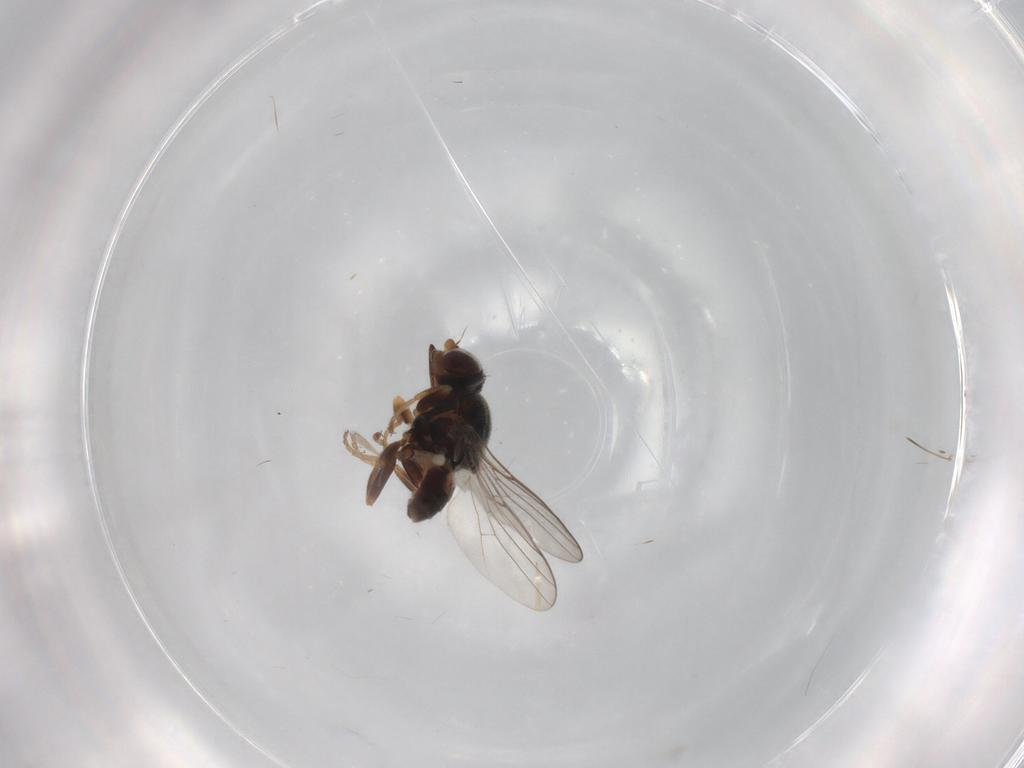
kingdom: Animalia
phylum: Arthropoda
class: Insecta
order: Diptera
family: Chloropidae
